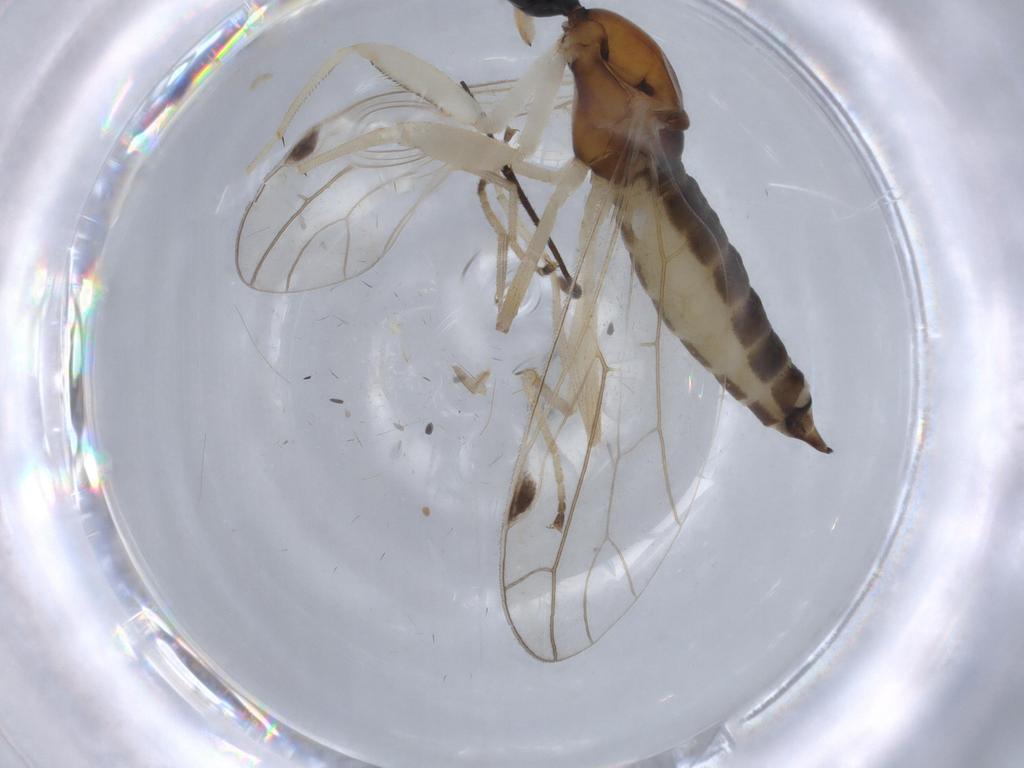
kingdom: Animalia
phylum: Arthropoda
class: Insecta
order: Diptera
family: Empididae
